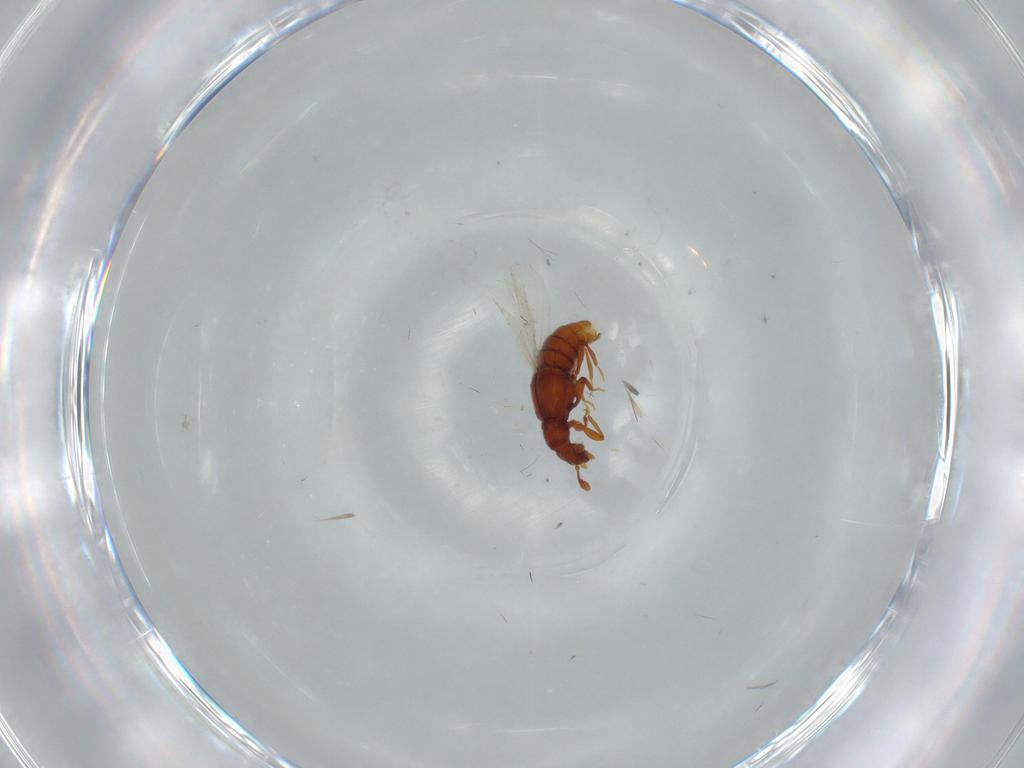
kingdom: Animalia
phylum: Arthropoda
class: Insecta
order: Coleoptera
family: Staphylinidae
